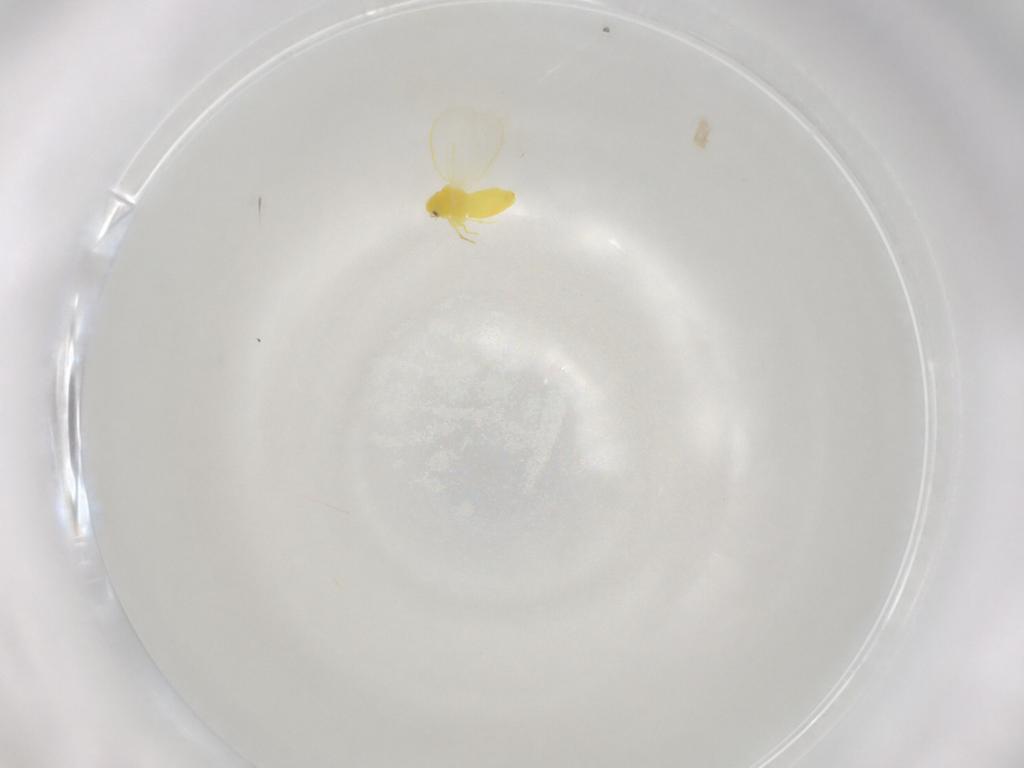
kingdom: Animalia
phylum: Arthropoda
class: Insecta
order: Hemiptera
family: Aleyrodidae
